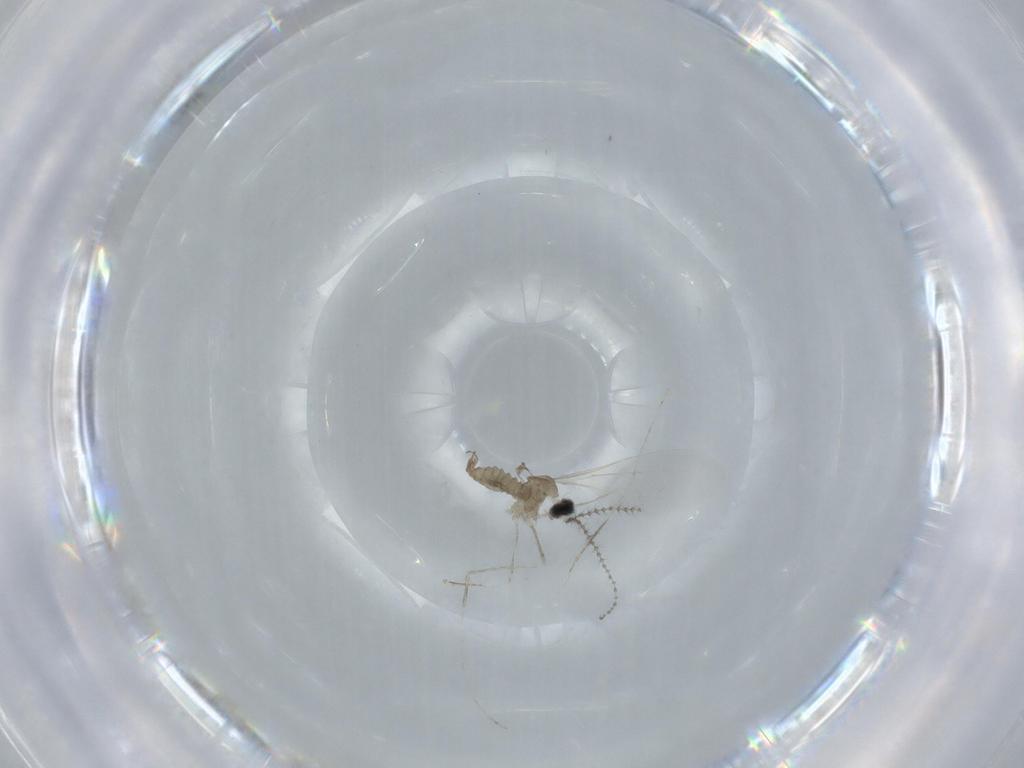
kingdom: Animalia
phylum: Arthropoda
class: Insecta
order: Diptera
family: Cecidomyiidae
